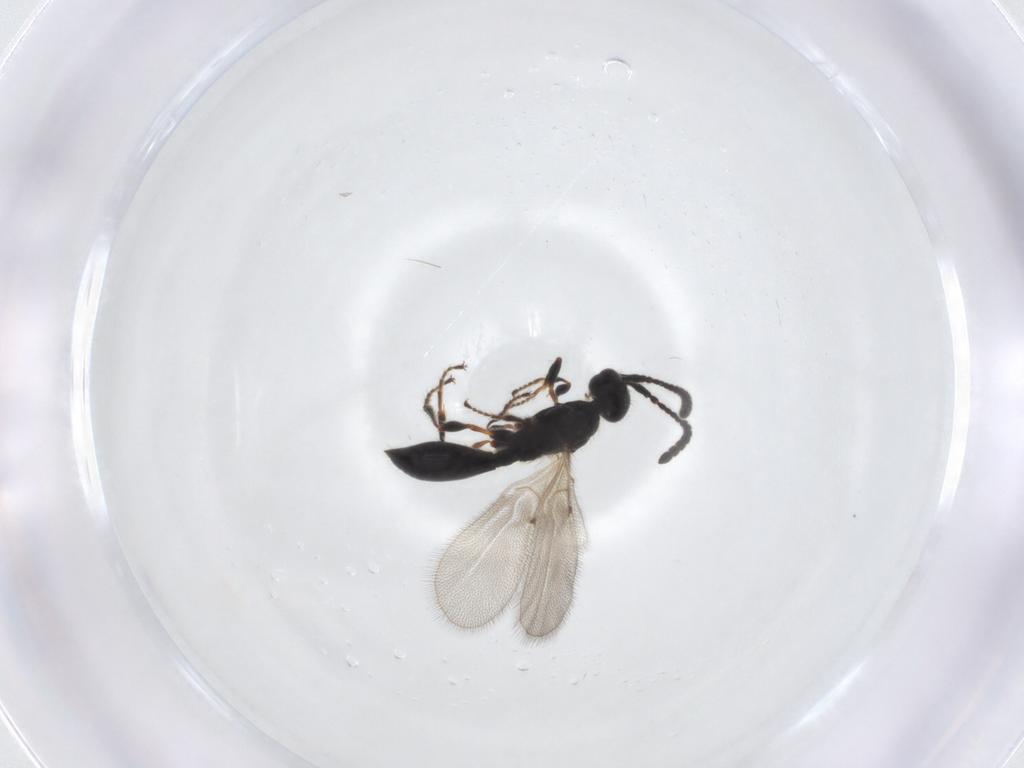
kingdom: Animalia
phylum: Arthropoda
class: Insecta
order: Hymenoptera
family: Diapriidae
